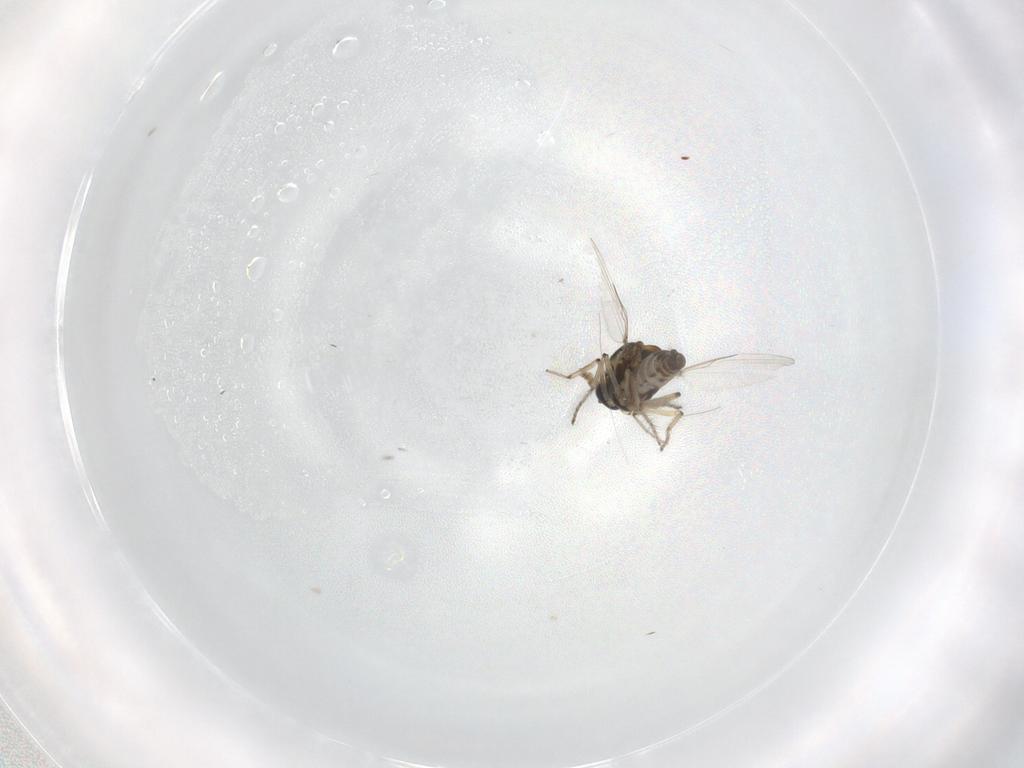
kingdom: Animalia
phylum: Arthropoda
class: Insecta
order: Diptera
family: Ceratopogonidae
